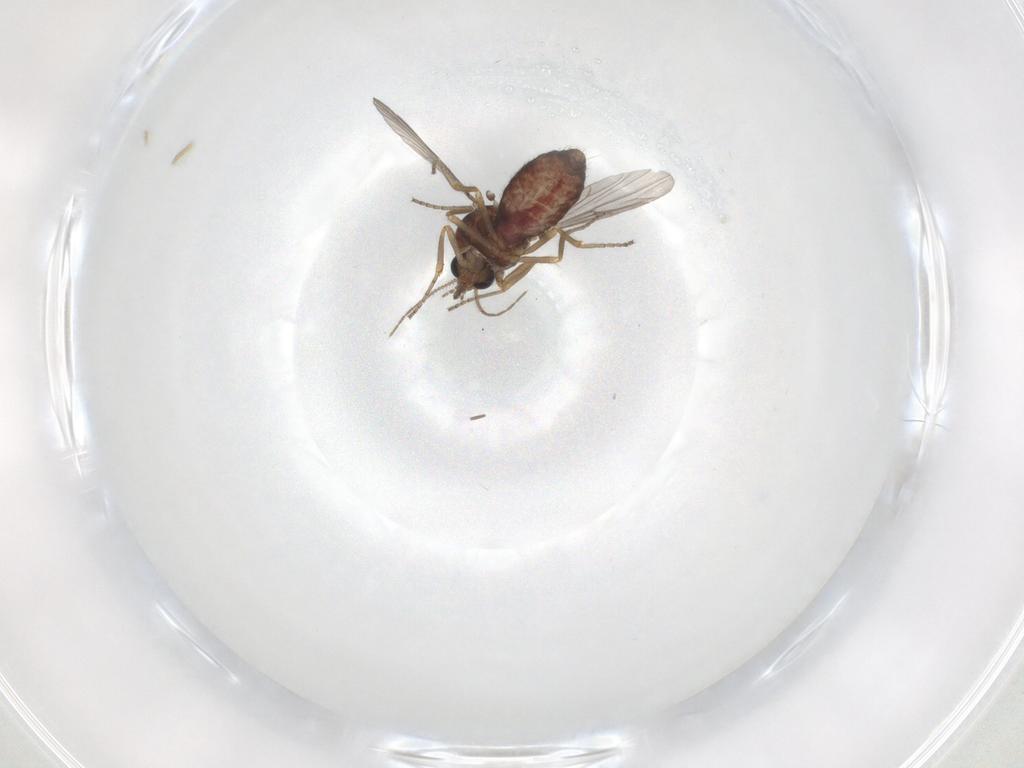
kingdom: Animalia
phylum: Arthropoda
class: Insecta
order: Diptera
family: Ceratopogonidae
